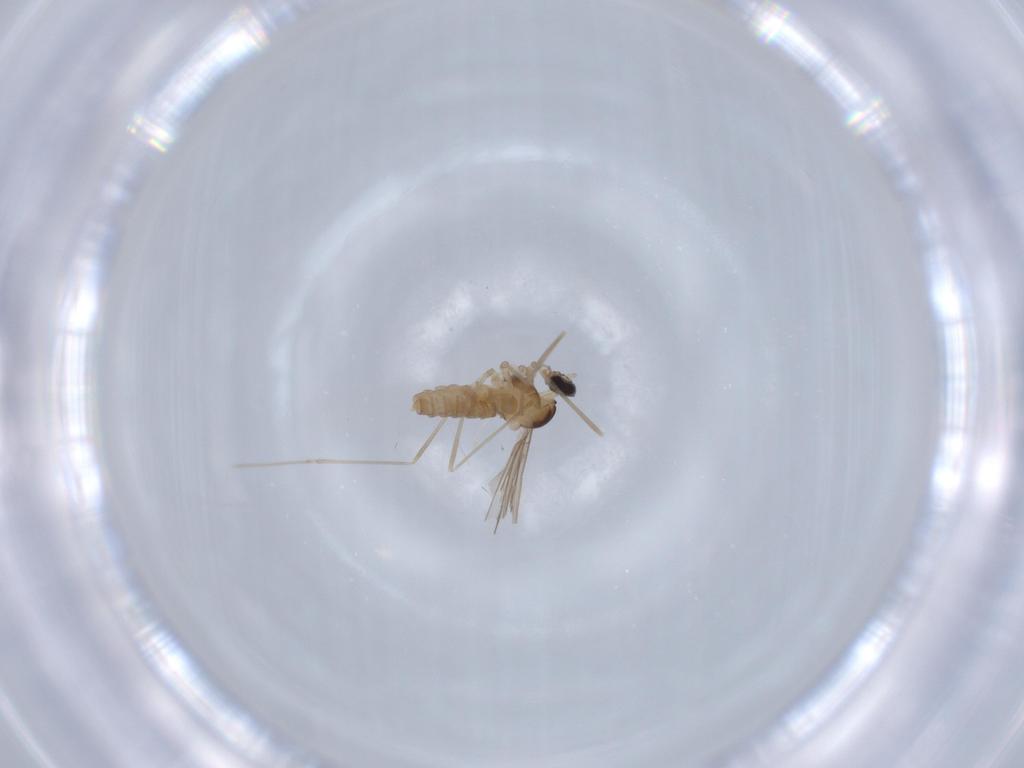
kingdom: Animalia
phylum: Arthropoda
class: Insecta
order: Diptera
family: Cecidomyiidae
